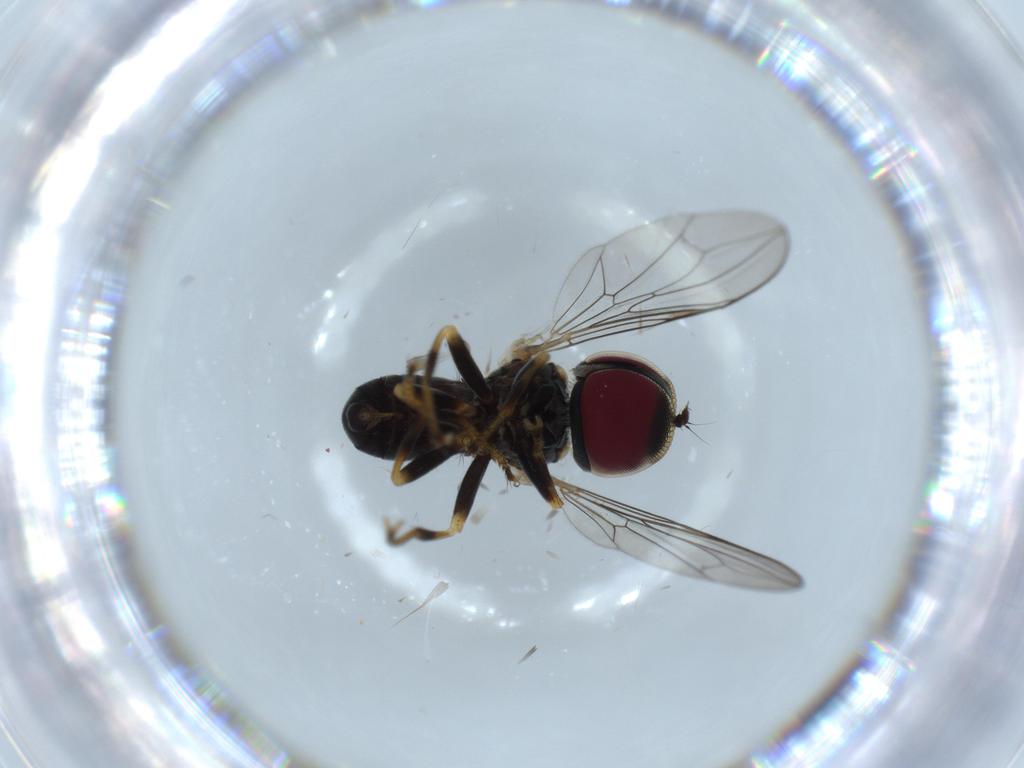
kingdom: Animalia
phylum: Arthropoda
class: Insecta
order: Diptera
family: Pipunculidae
